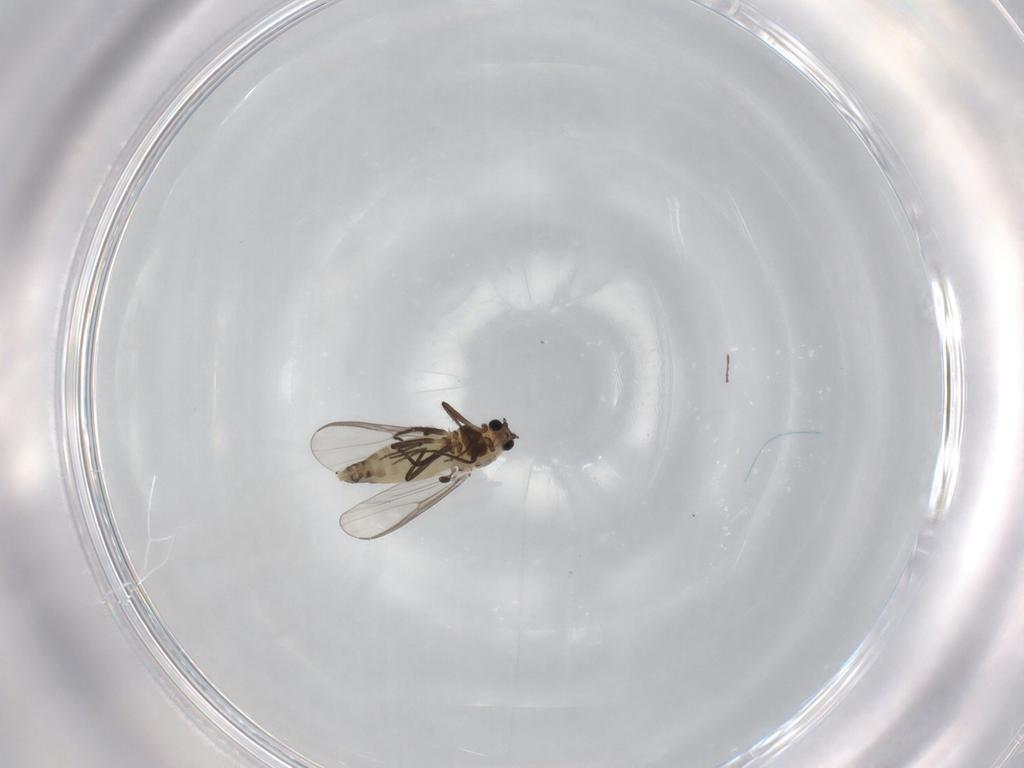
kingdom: Animalia
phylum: Arthropoda
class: Insecta
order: Diptera
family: Chironomidae
